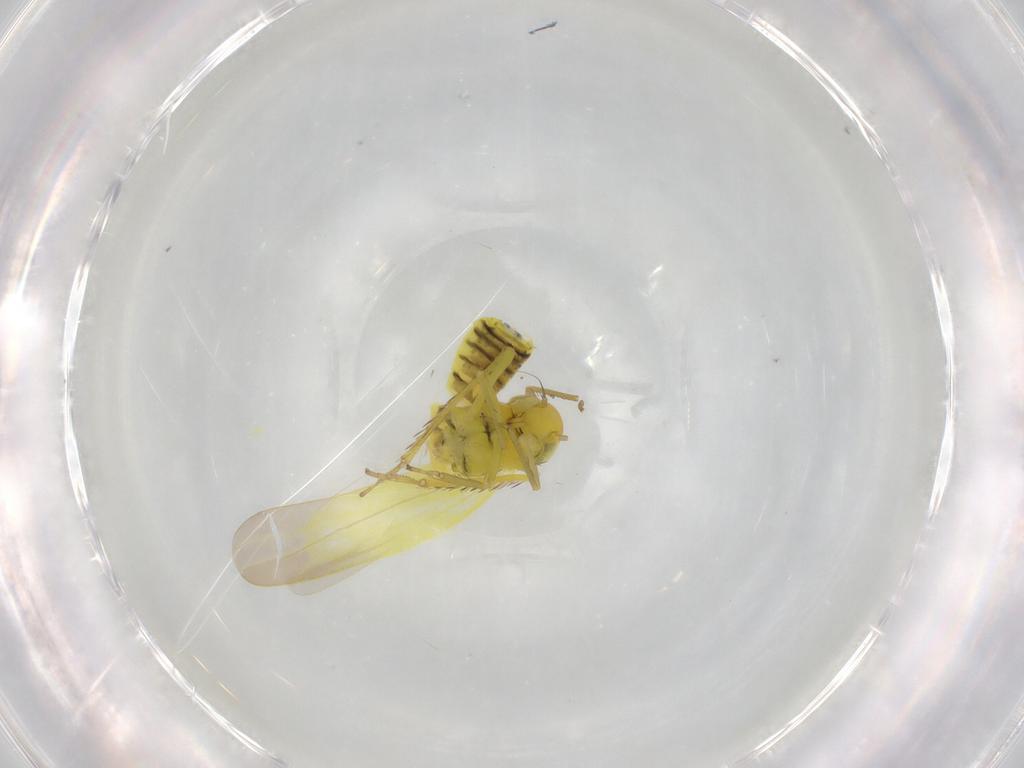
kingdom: Animalia
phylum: Arthropoda
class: Insecta
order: Hemiptera
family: Cicadellidae
